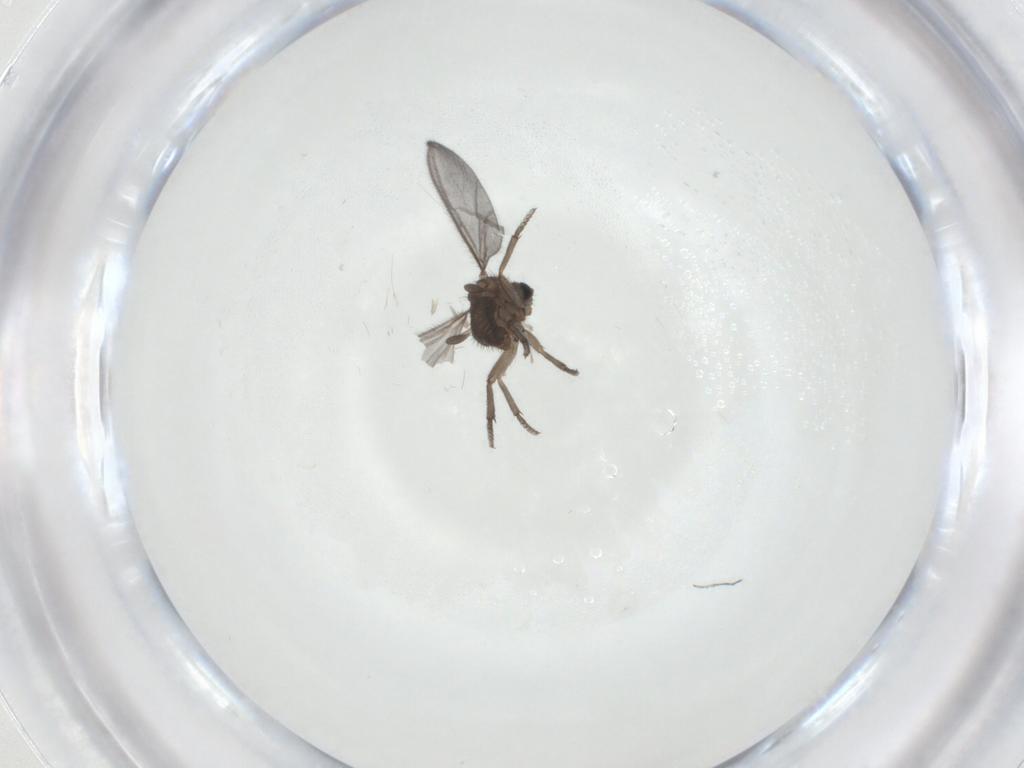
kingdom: Animalia
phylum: Arthropoda
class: Insecta
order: Diptera
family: Sciaridae
